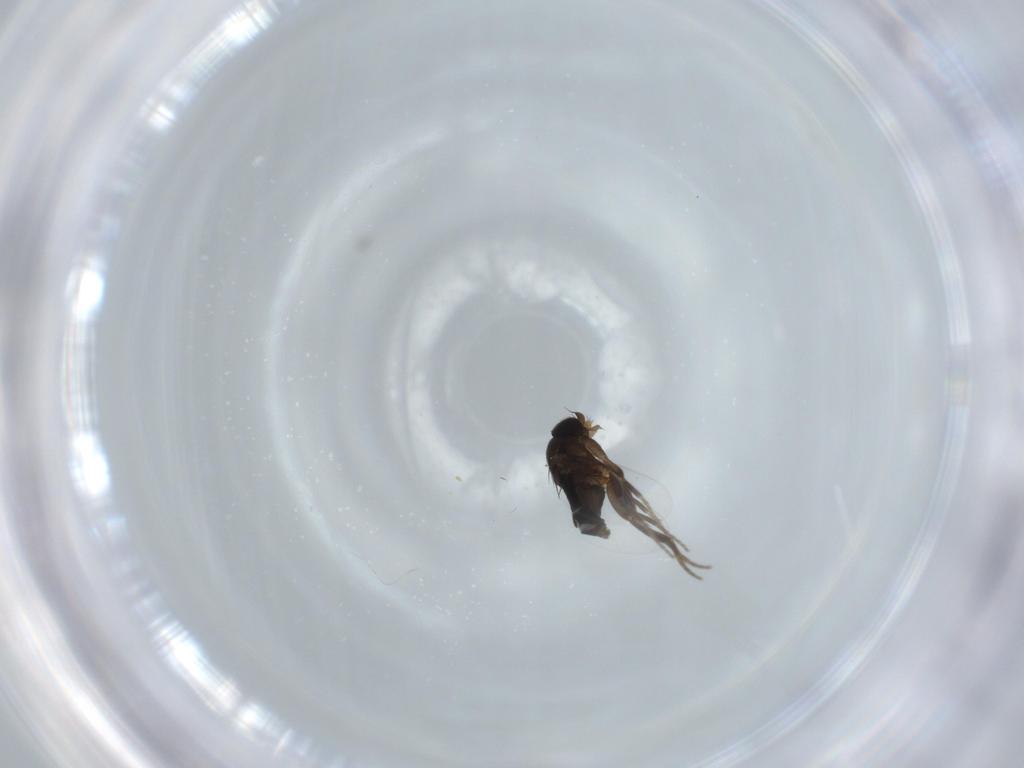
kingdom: Animalia
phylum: Arthropoda
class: Insecta
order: Diptera
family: Phoridae
